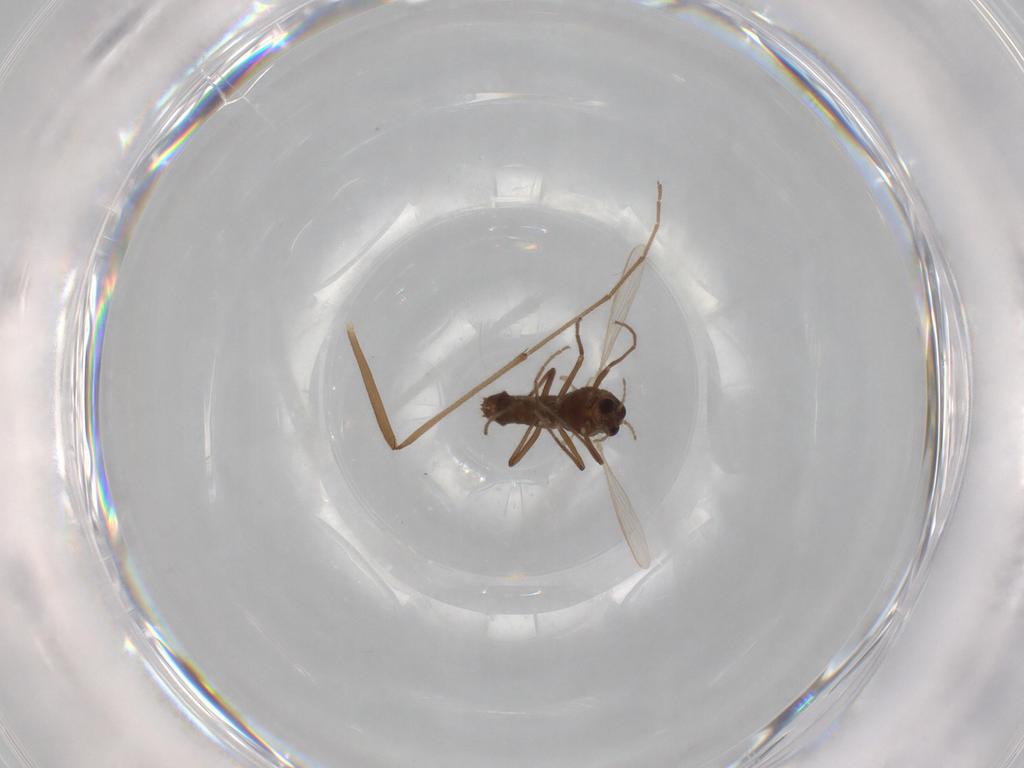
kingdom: Animalia
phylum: Arthropoda
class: Insecta
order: Diptera
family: Chironomidae
